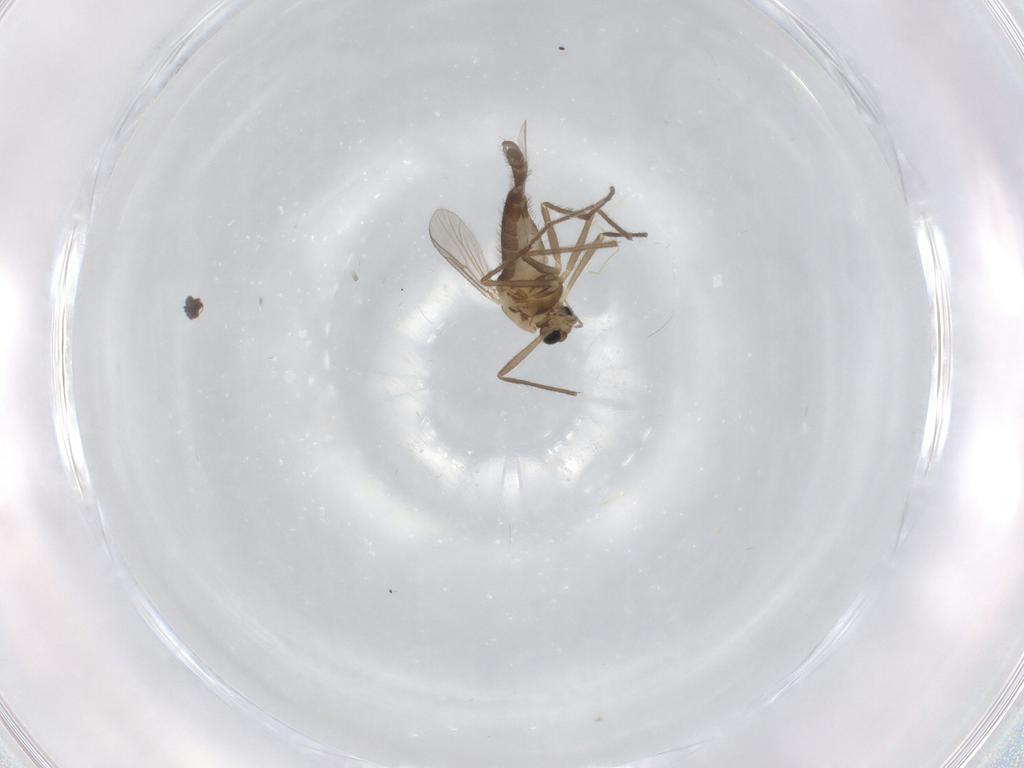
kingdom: Animalia
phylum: Arthropoda
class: Insecta
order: Diptera
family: Chironomidae
